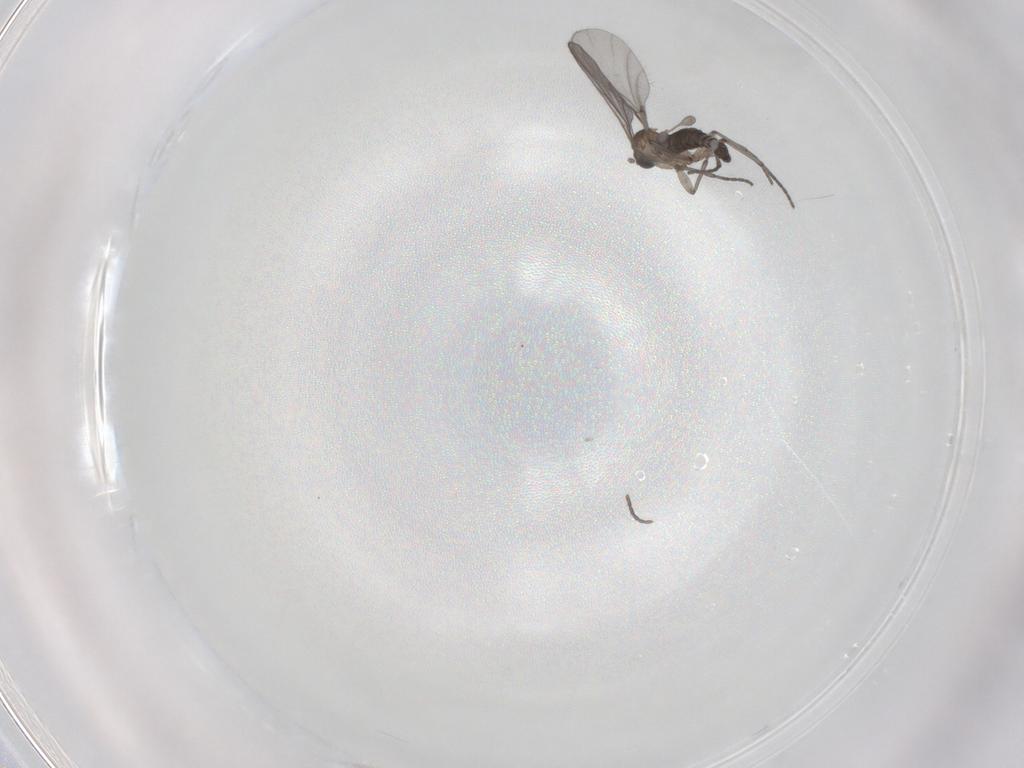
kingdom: Animalia
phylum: Arthropoda
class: Insecta
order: Diptera
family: Sciaridae
